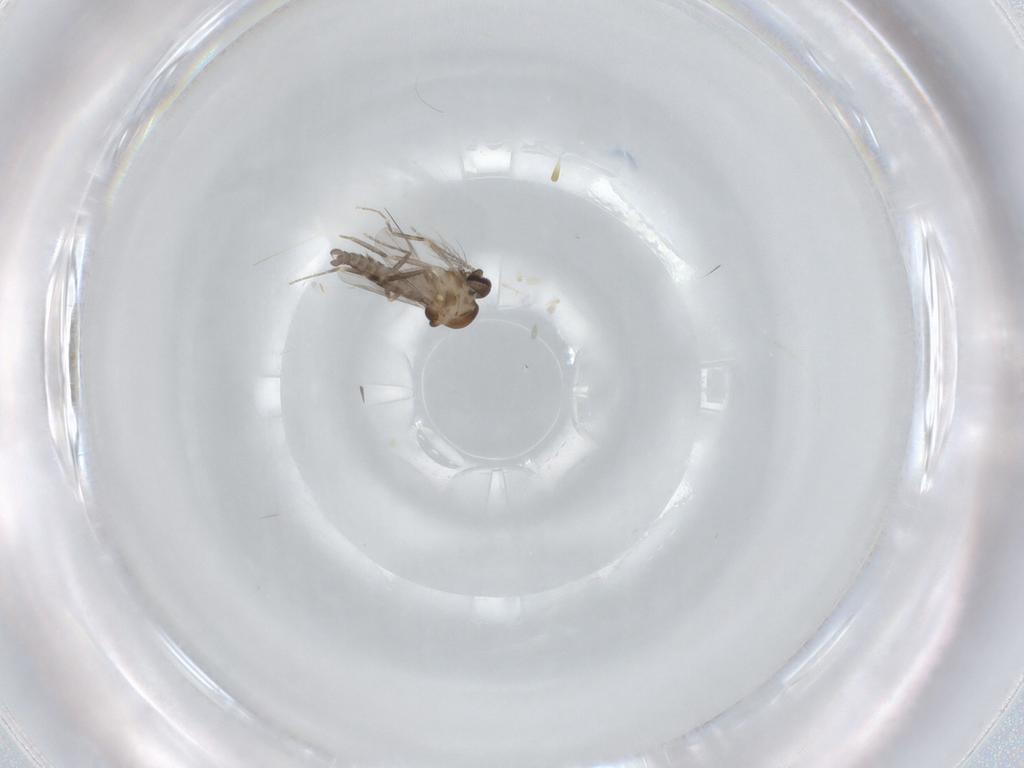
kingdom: Animalia
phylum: Arthropoda
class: Insecta
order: Diptera
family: Ceratopogonidae
